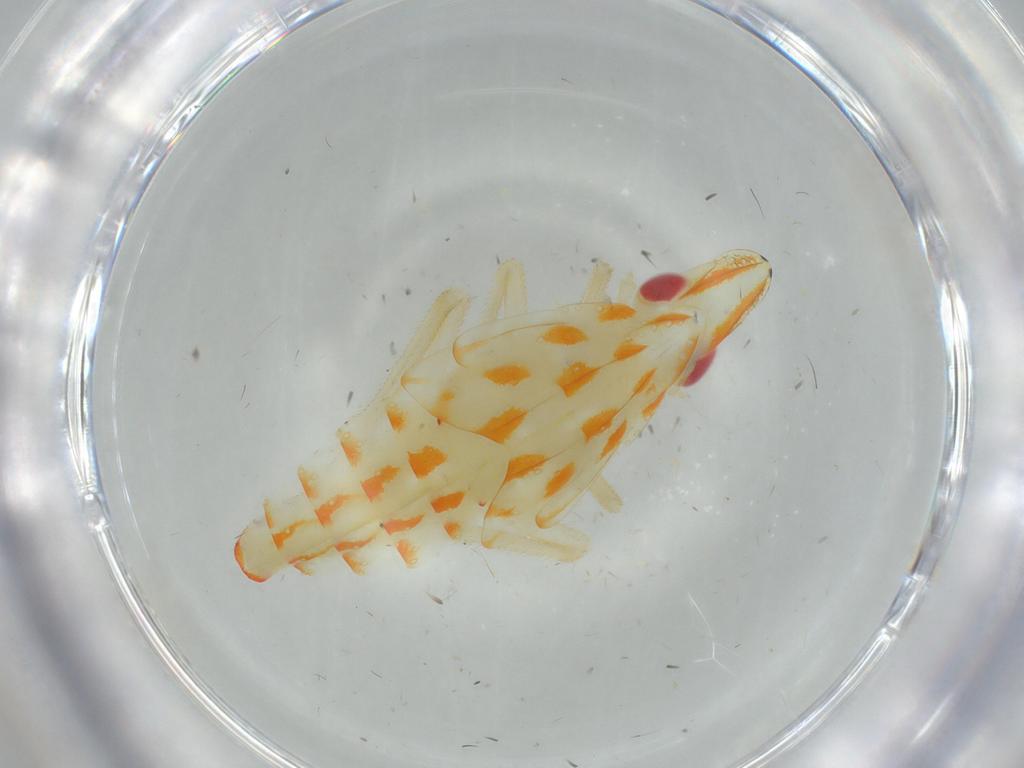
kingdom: Animalia
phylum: Arthropoda
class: Insecta
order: Hemiptera
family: Tropiduchidae
